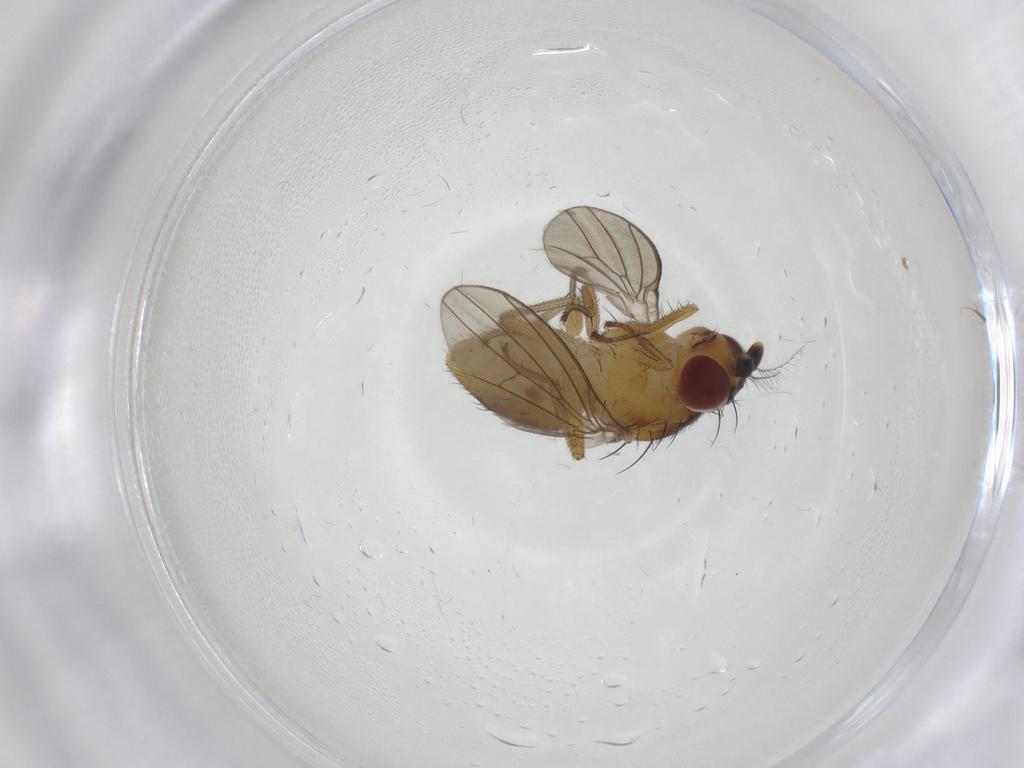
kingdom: Animalia
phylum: Arthropoda
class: Insecta
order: Diptera
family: Lauxaniidae
